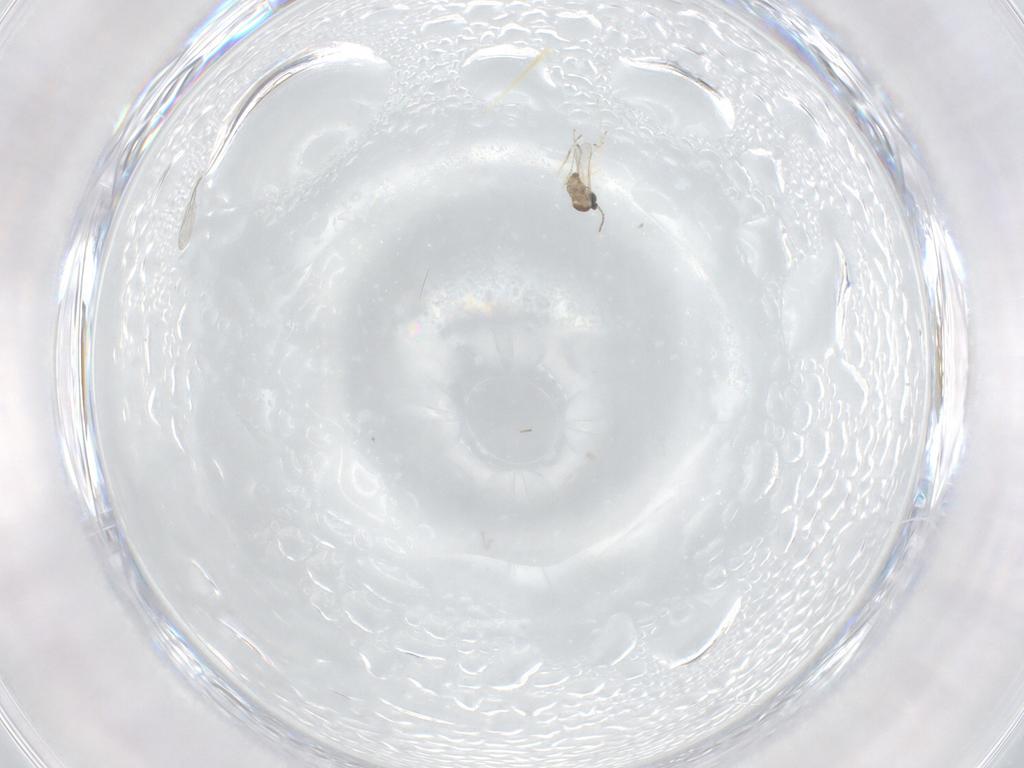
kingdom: Animalia
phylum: Arthropoda
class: Insecta
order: Diptera
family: Cecidomyiidae
